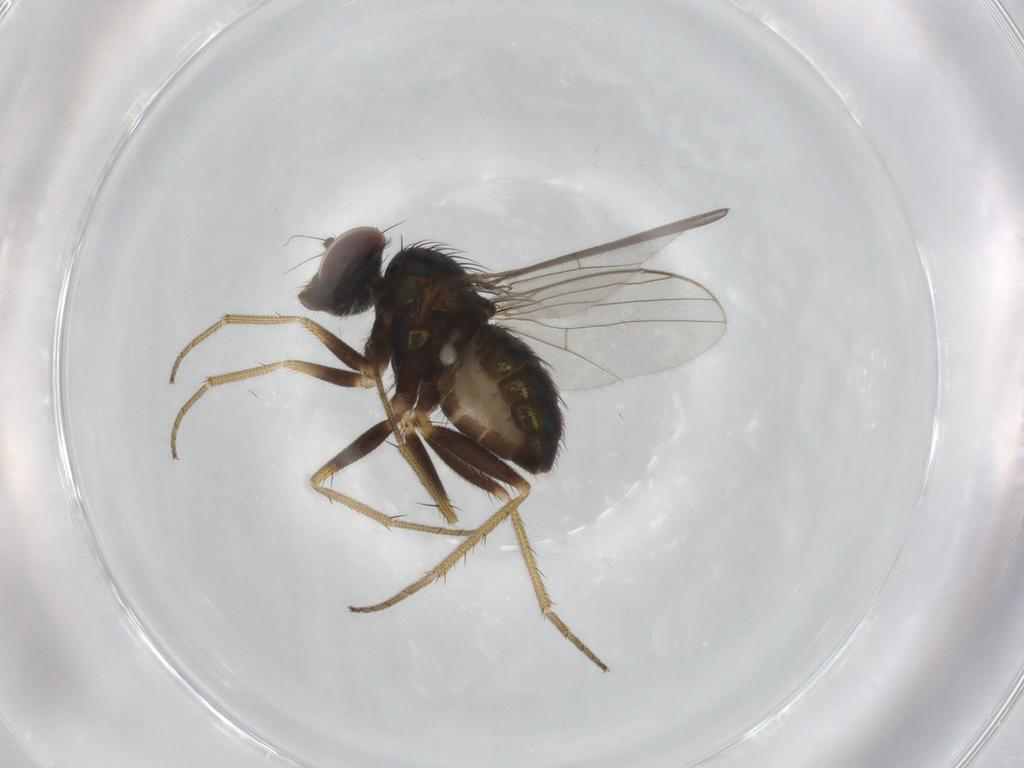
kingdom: Animalia
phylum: Arthropoda
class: Insecta
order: Diptera
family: Dolichopodidae
